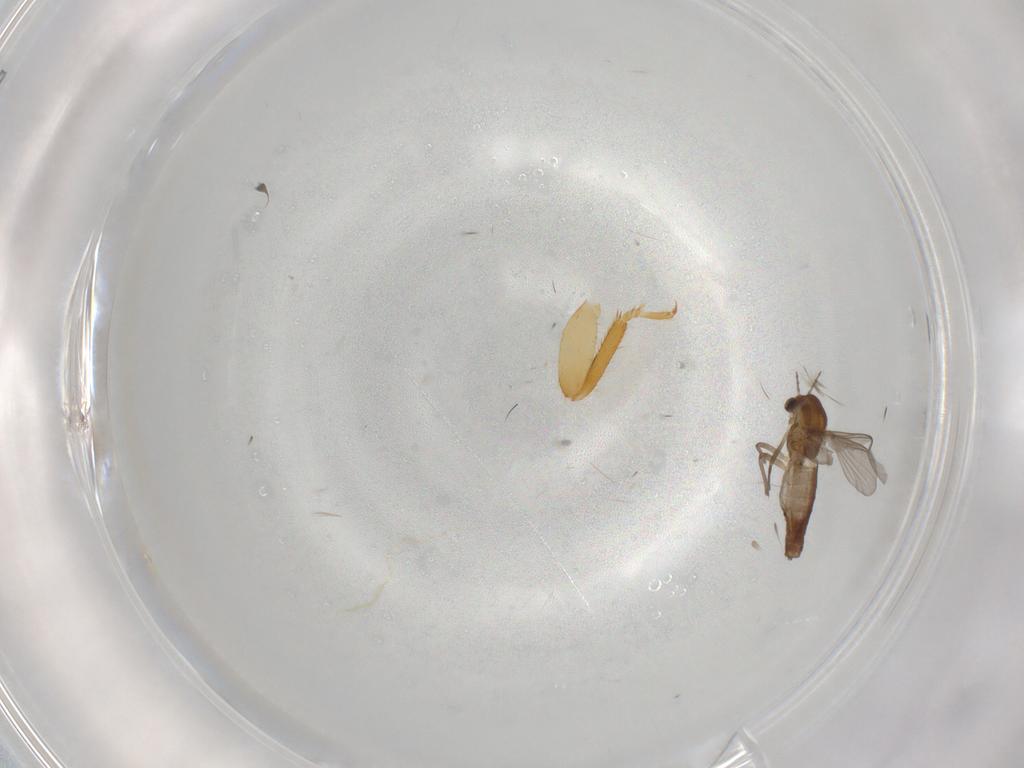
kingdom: Animalia
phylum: Arthropoda
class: Insecta
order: Diptera
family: Chironomidae
